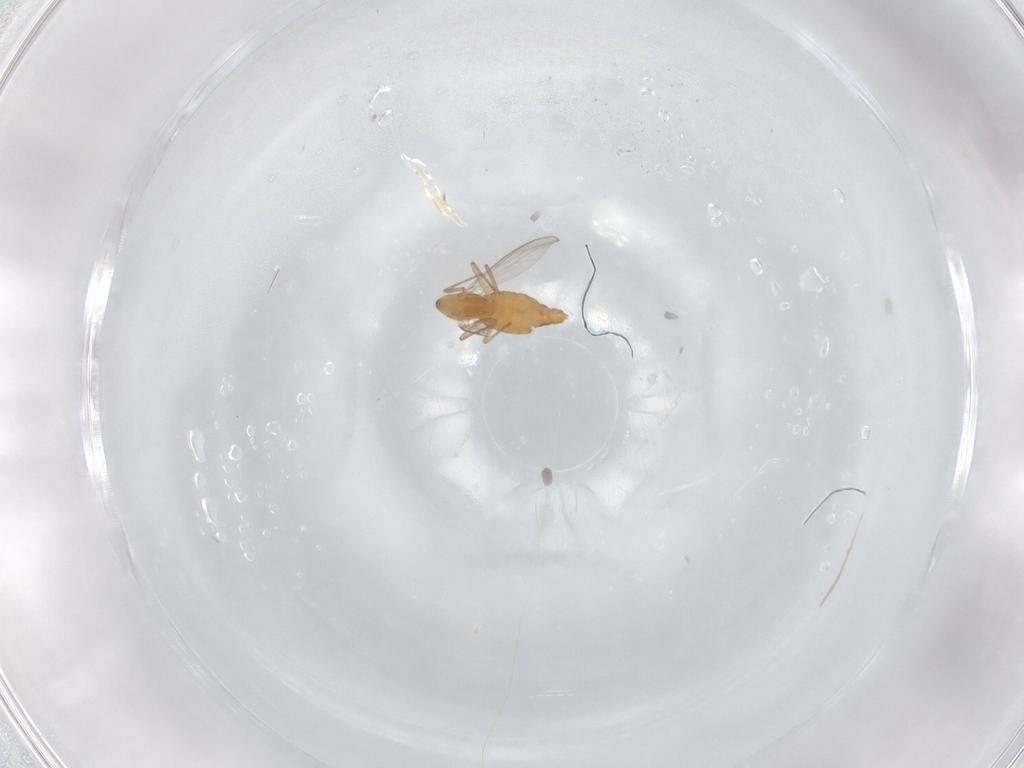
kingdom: Animalia
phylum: Arthropoda
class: Insecta
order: Diptera
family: Chironomidae
